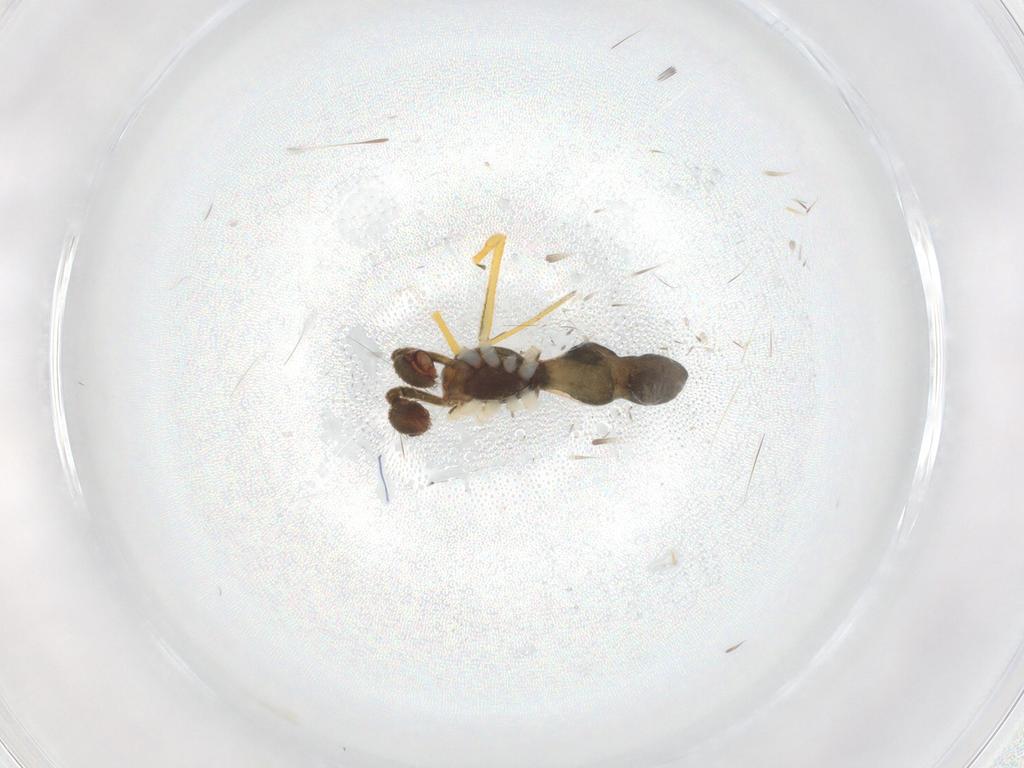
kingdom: Animalia
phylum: Arthropoda
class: Arachnida
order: Araneae
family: Theridiidae
